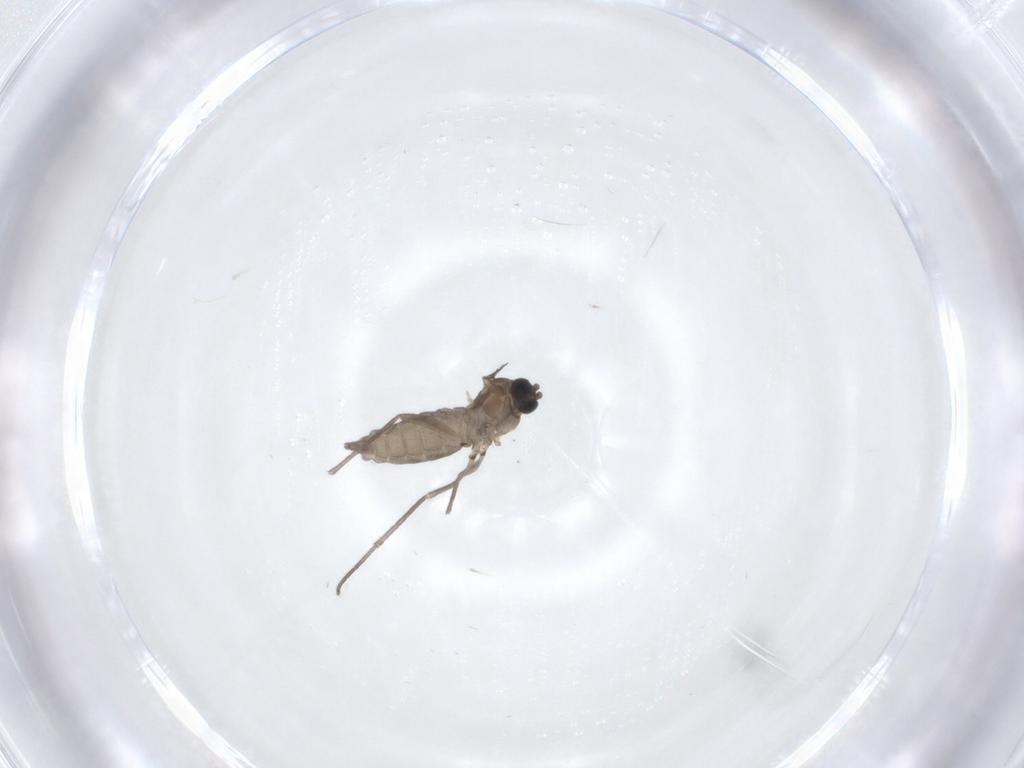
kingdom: Animalia
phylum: Arthropoda
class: Insecta
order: Diptera
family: Sciaridae
